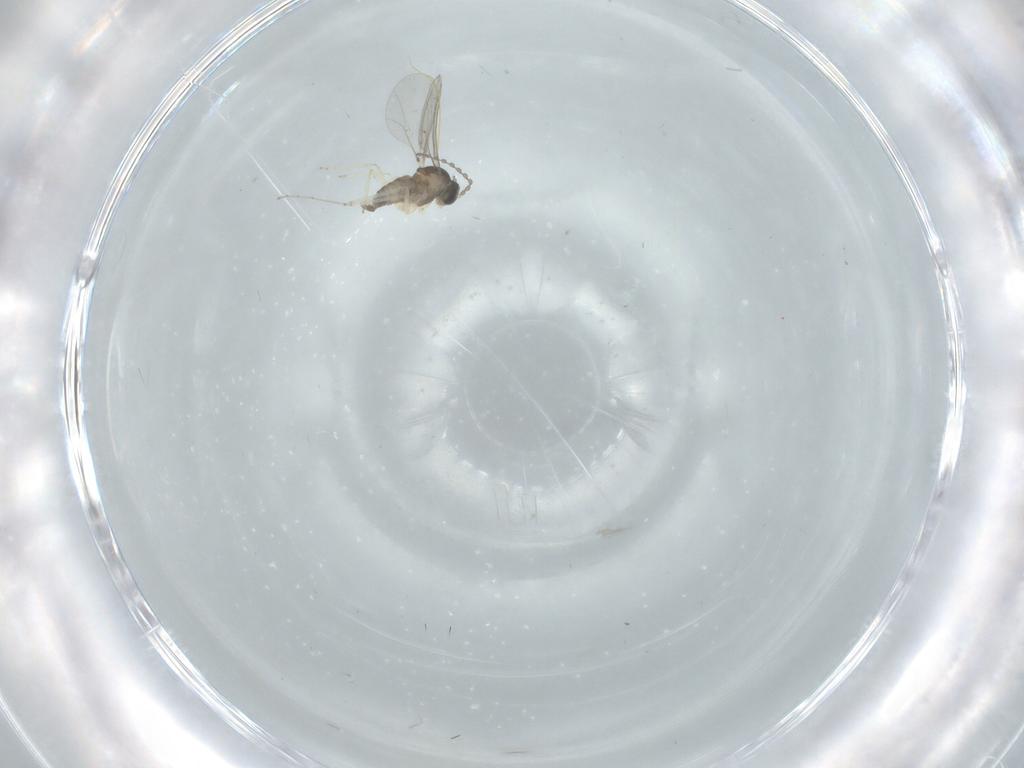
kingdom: Animalia
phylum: Arthropoda
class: Insecta
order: Diptera
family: Cecidomyiidae
